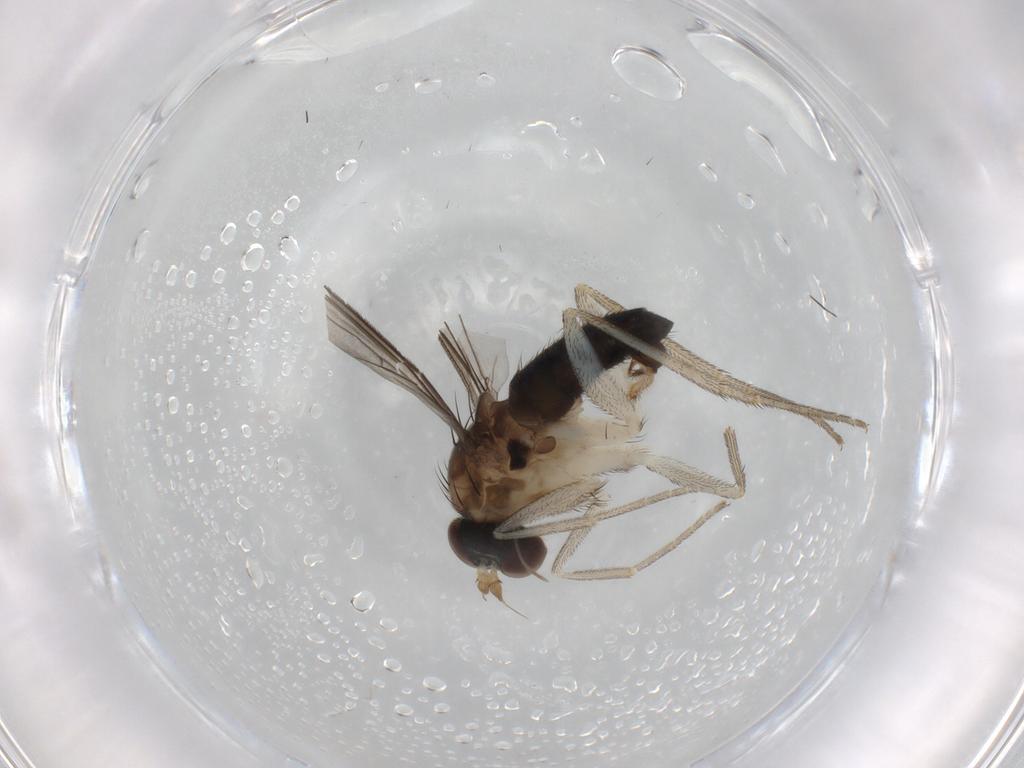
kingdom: Animalia
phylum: Arthropoda
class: Insecta
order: Diptera
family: Dolichopodidae
